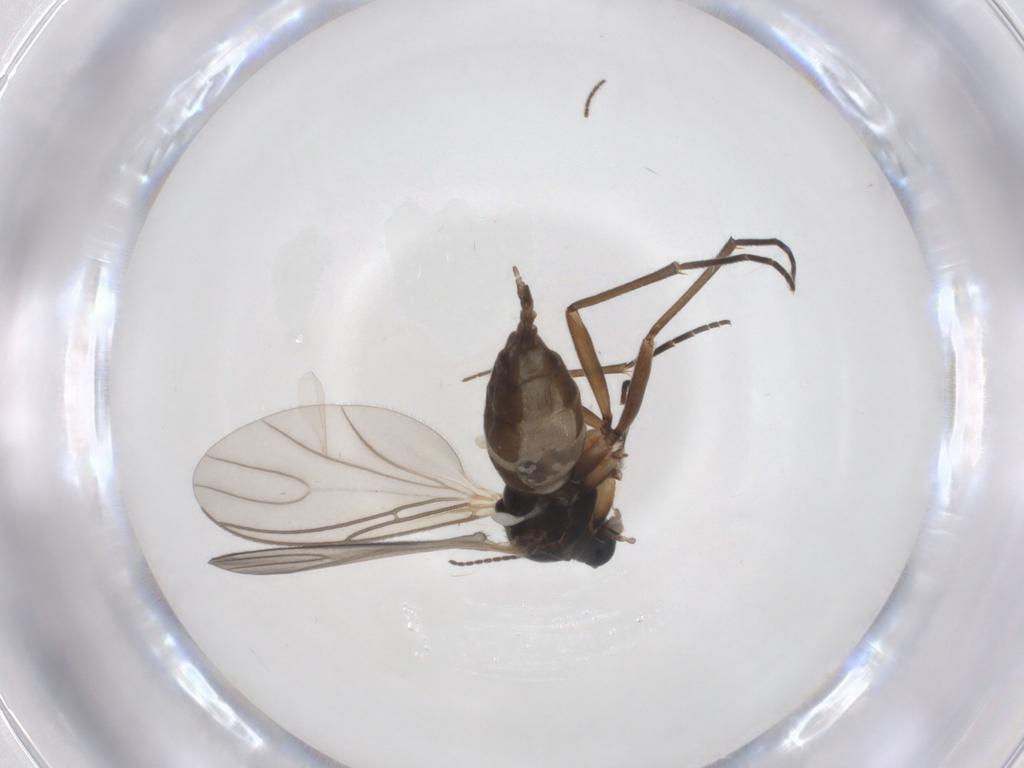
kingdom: Animalia
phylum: Arthropoda
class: Insecta
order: Diptera
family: Sciaridae
